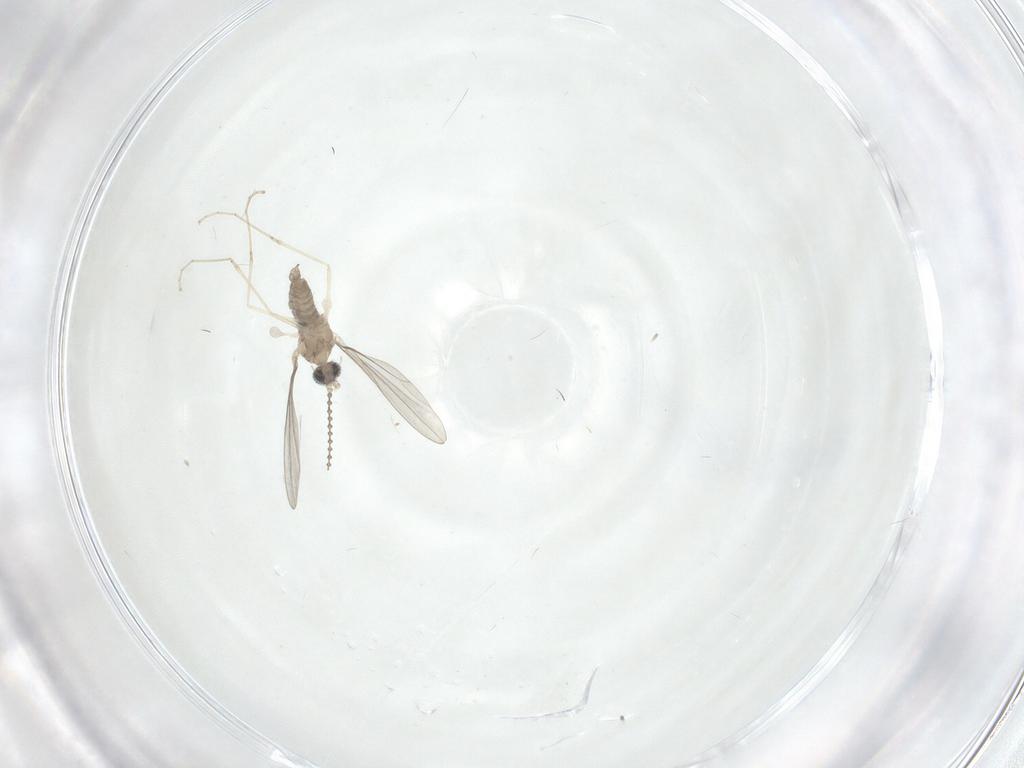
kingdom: Animalia
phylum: Arthropoda
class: Insecta
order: Diptera
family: Cecidomyiidae
